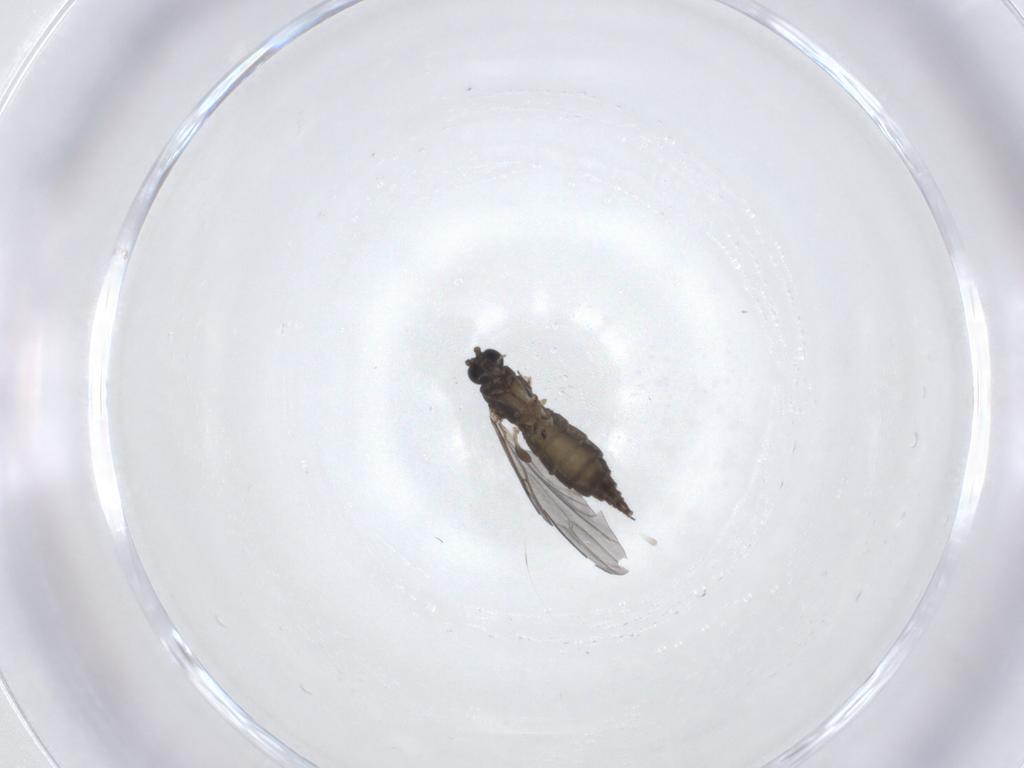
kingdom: Animalia
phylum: Arthropoda
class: Insecta
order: Diptera
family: Sciaridae
